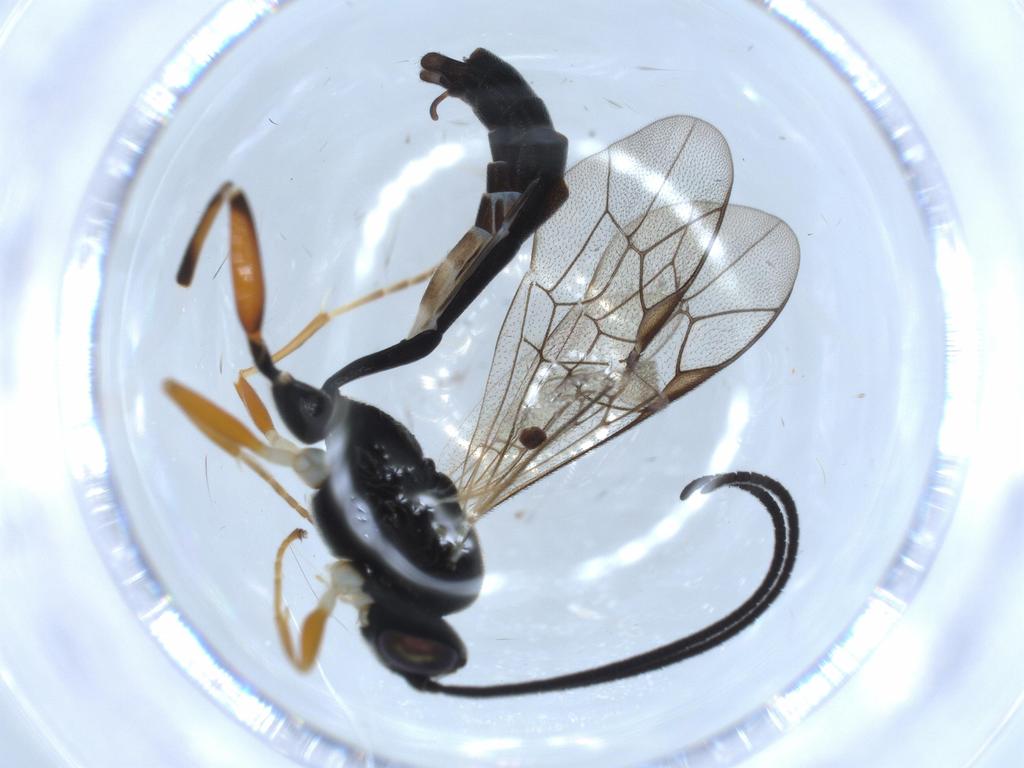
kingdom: Animalia
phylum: Arthropoda
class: Insecta
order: Hymenoptera
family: Ichneumonidae
